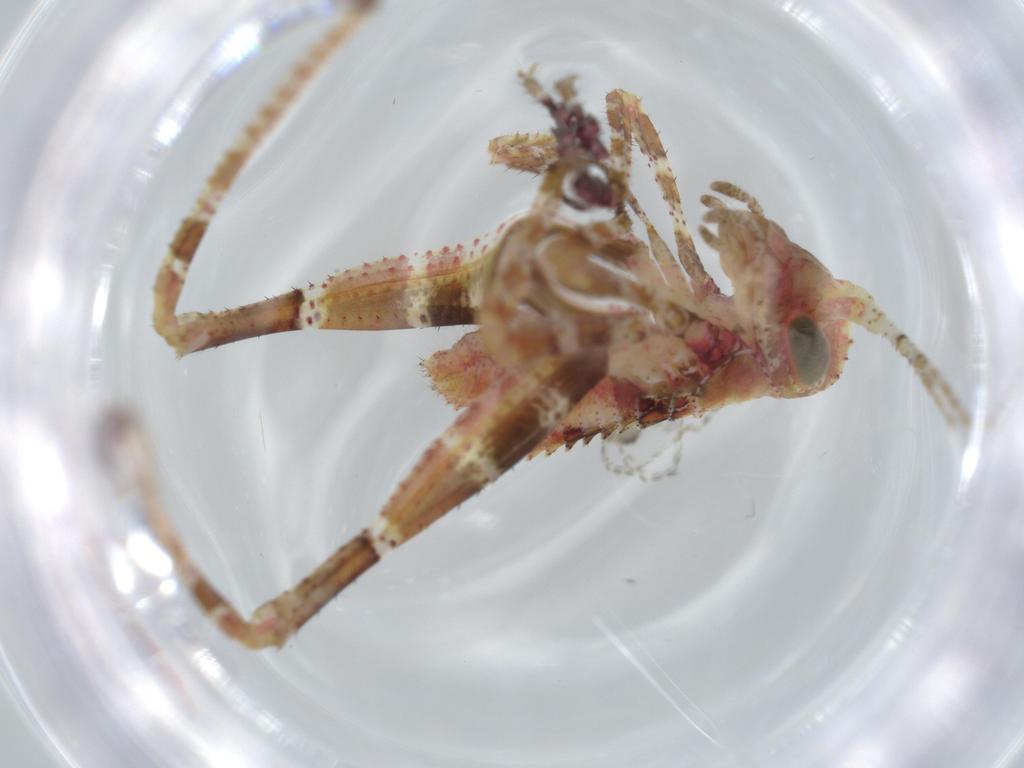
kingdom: Animalia
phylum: Arthropoda
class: Insecta
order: Orthoptera
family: Tettigoniidae
